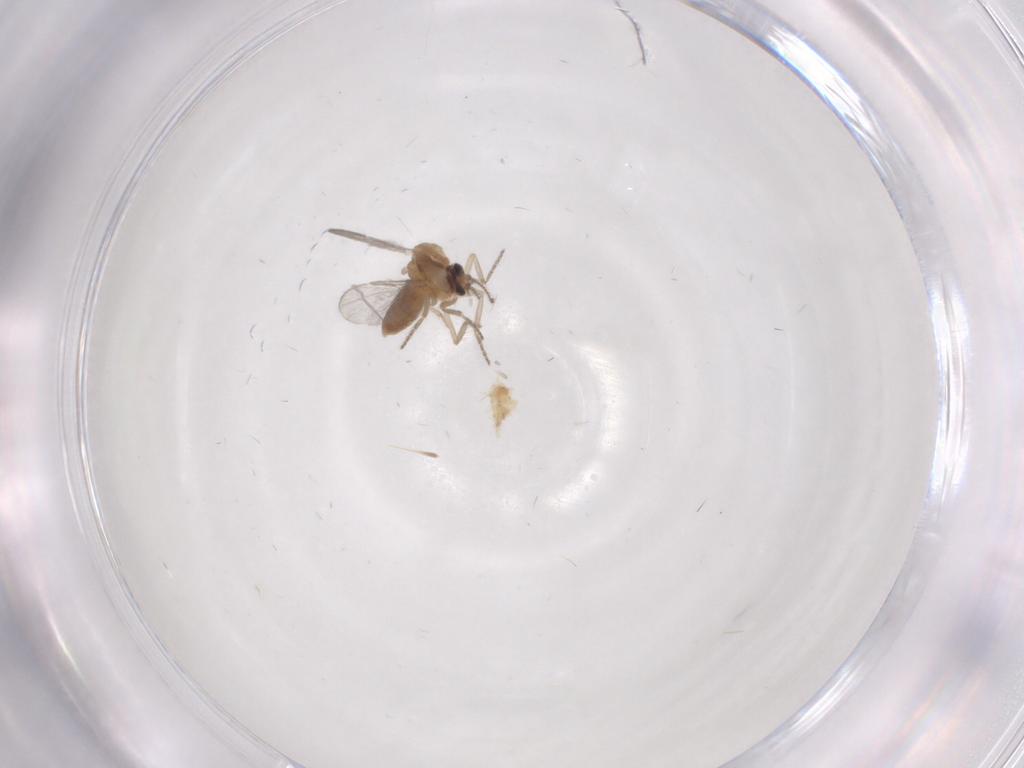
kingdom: Animalia
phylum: Arthropoda
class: Insecta
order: Diptera
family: Ceratopogonidae
